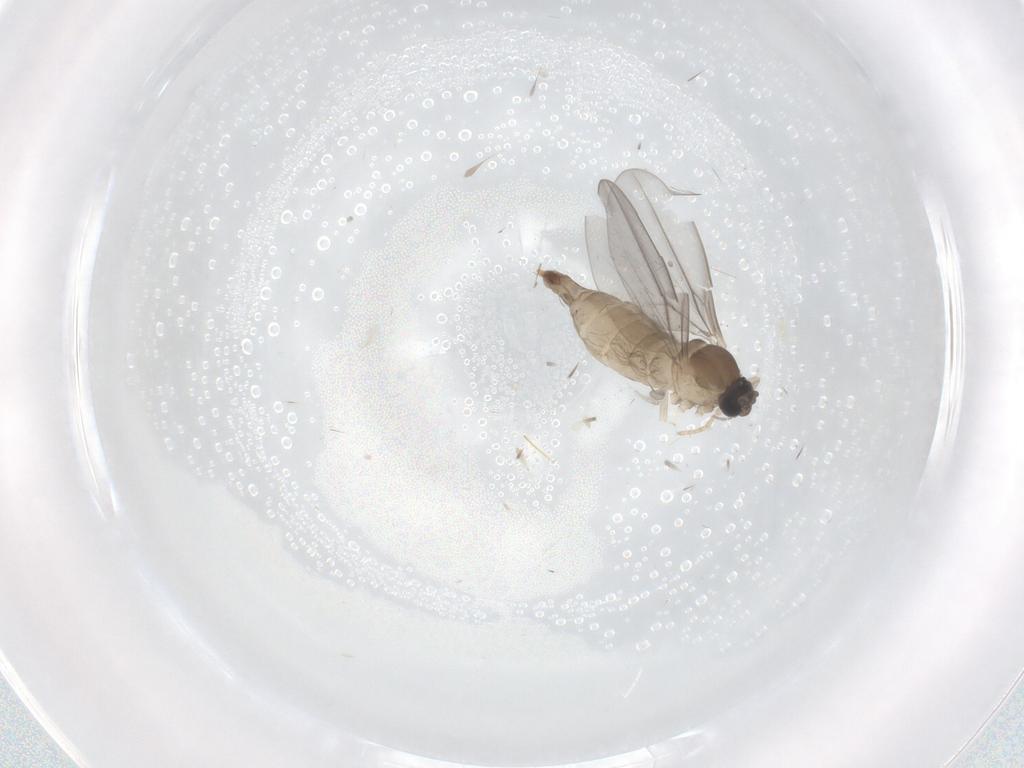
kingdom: Animalia
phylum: Arthropoda
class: Insecta
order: Diptera
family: Cecidomyiidae
